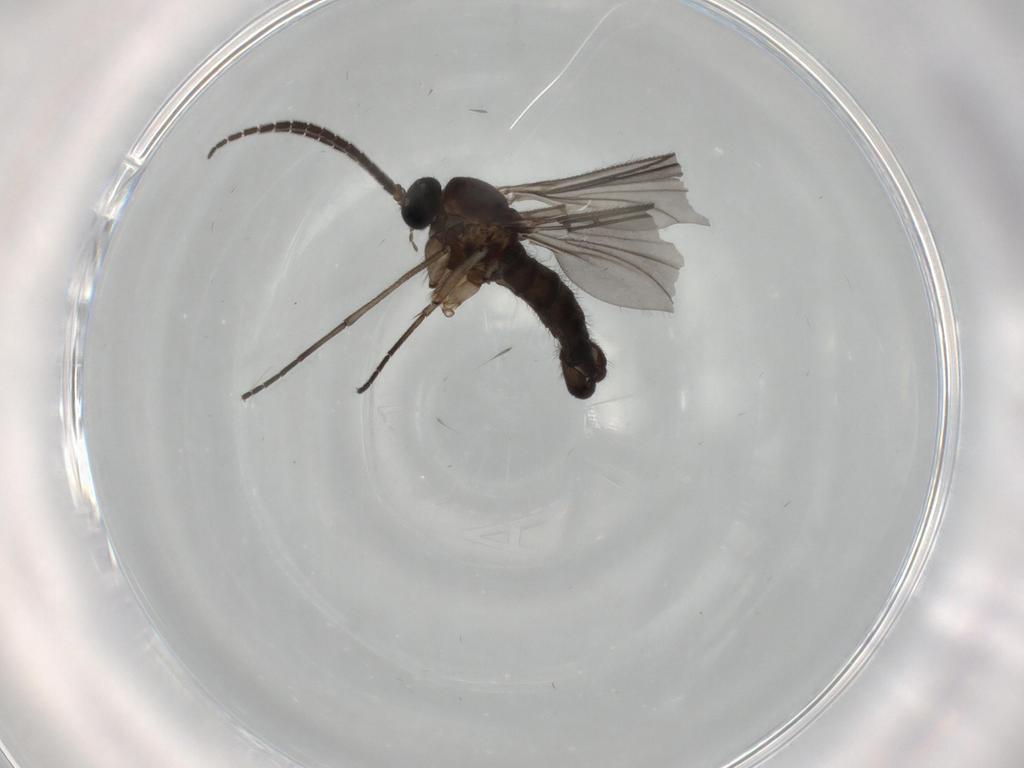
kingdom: Animalia
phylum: Arthropoda
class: Insecta
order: Diptera
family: Sciaridae
